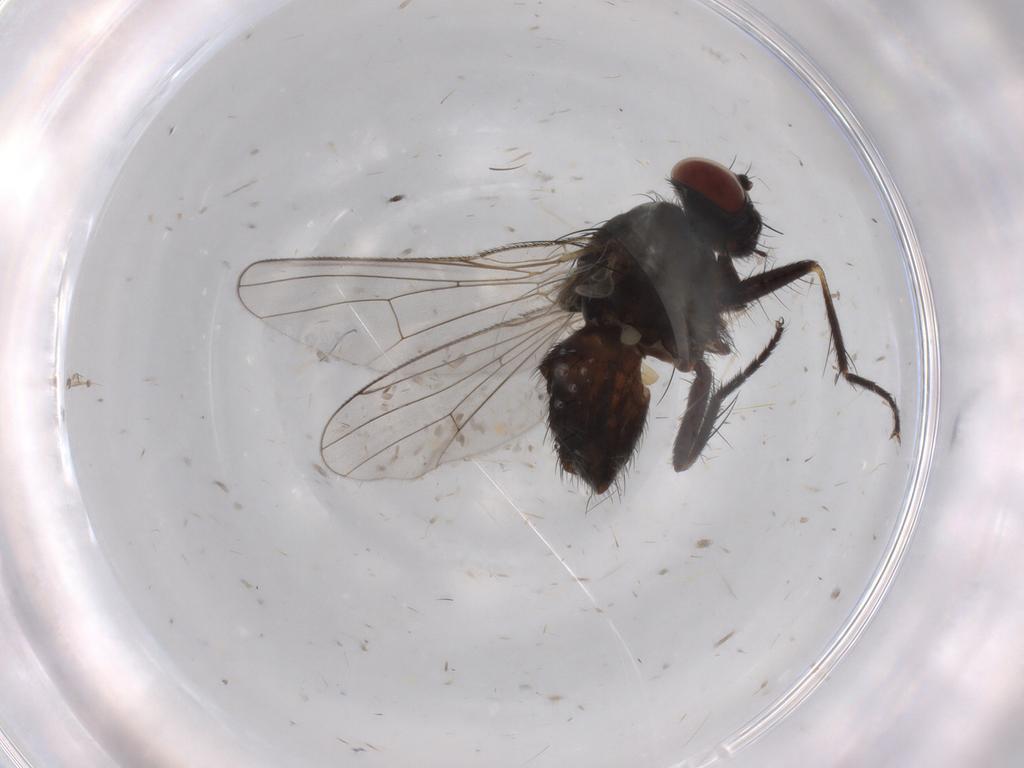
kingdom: Animalia
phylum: Arthropoda
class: Insecta
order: Diptera
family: Muscidae
